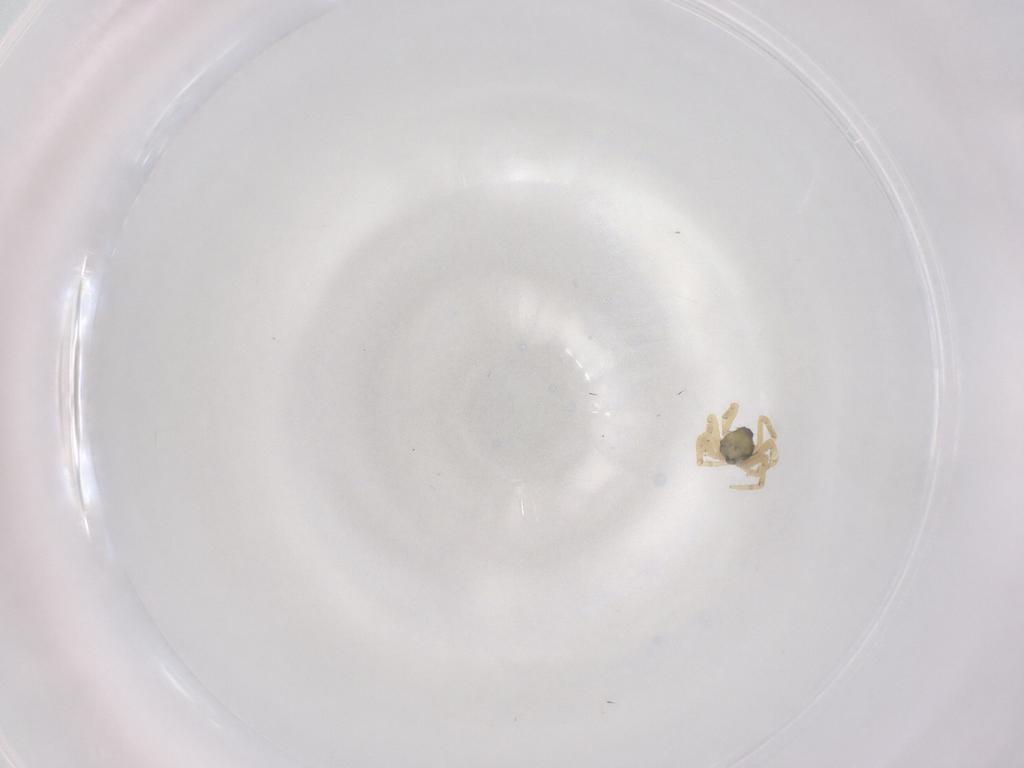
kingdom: Animalia
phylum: Arthropoda
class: Arachnida
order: Araneae
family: Theridiidae
